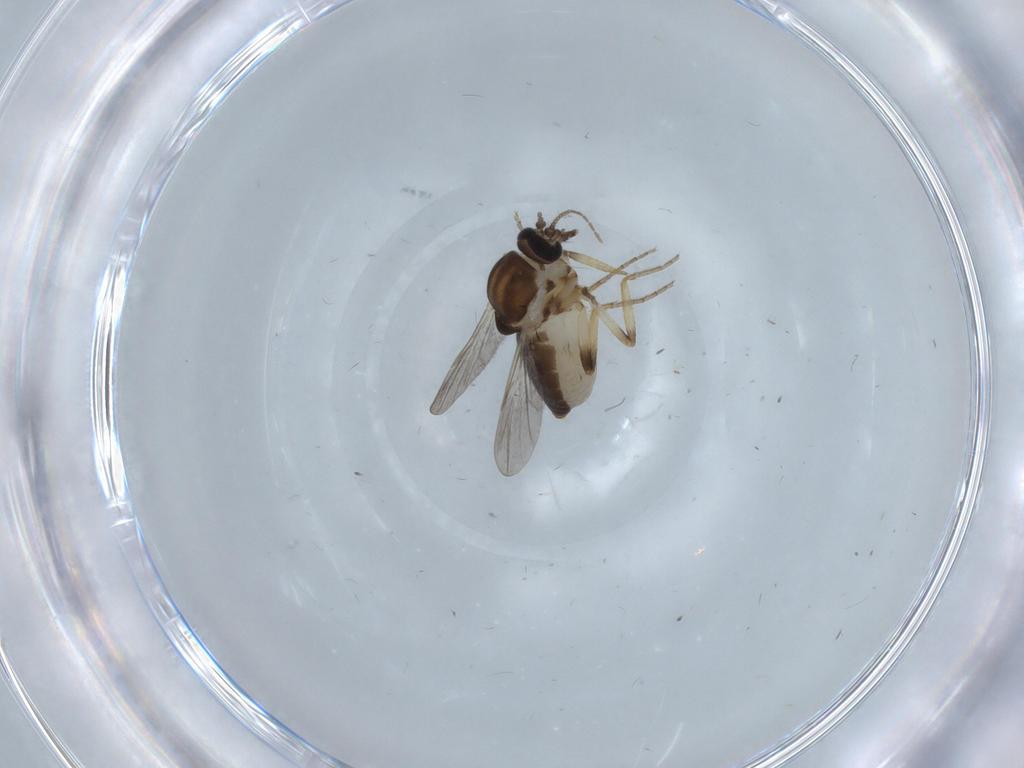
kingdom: Animalia
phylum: Arthropoda
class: Insecta
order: Diptera
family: Ceratopogonidae
